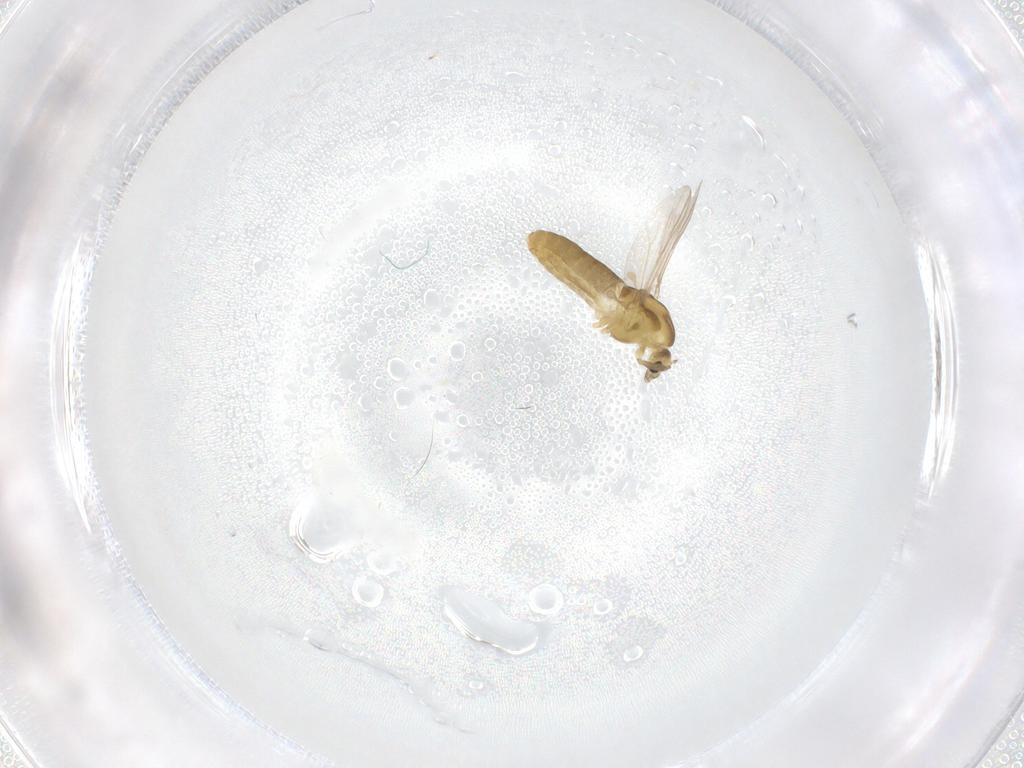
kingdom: Animalia
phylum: Arthropoda
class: Insecta
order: Diptera
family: Chironomidae
